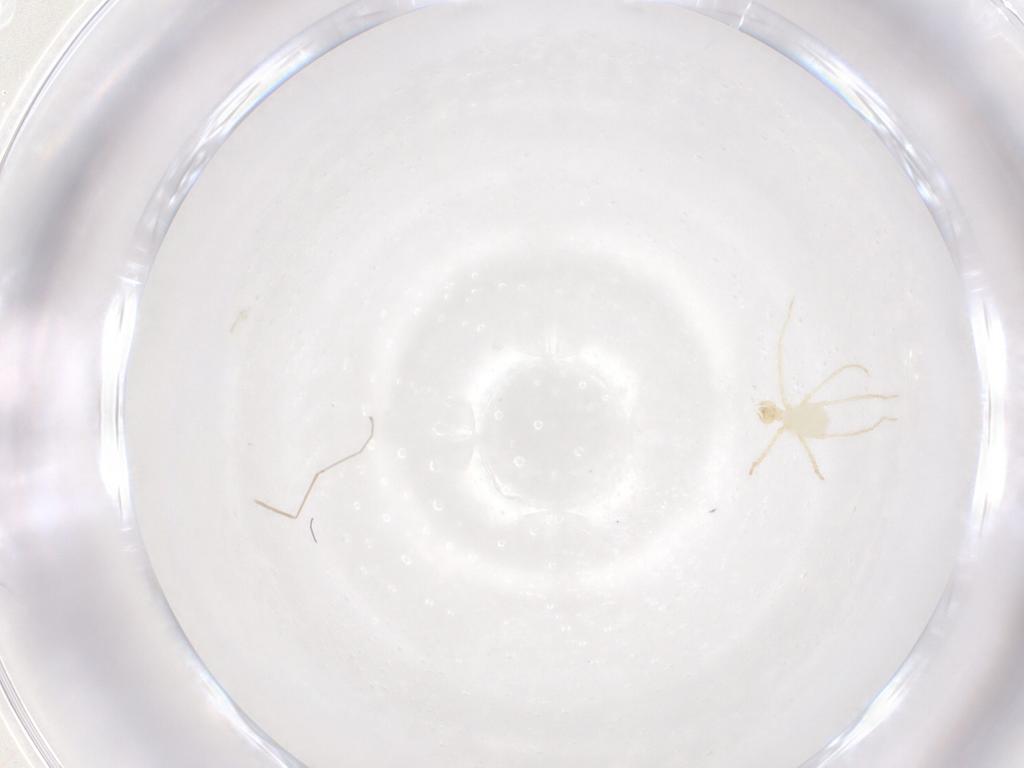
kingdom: Animalia
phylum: Arthropoda
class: Arachnida
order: Trombidiformes
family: Erythraeidae
